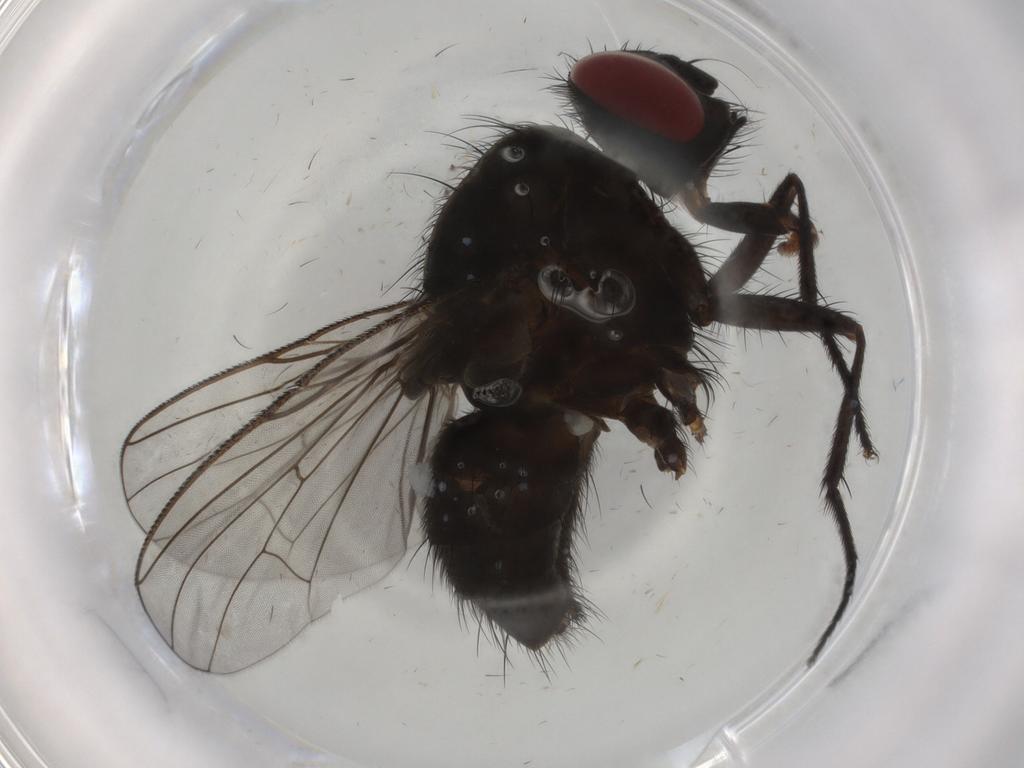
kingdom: Animalia
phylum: Arthropoda
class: Insecta
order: Diptera
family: Muscidae
